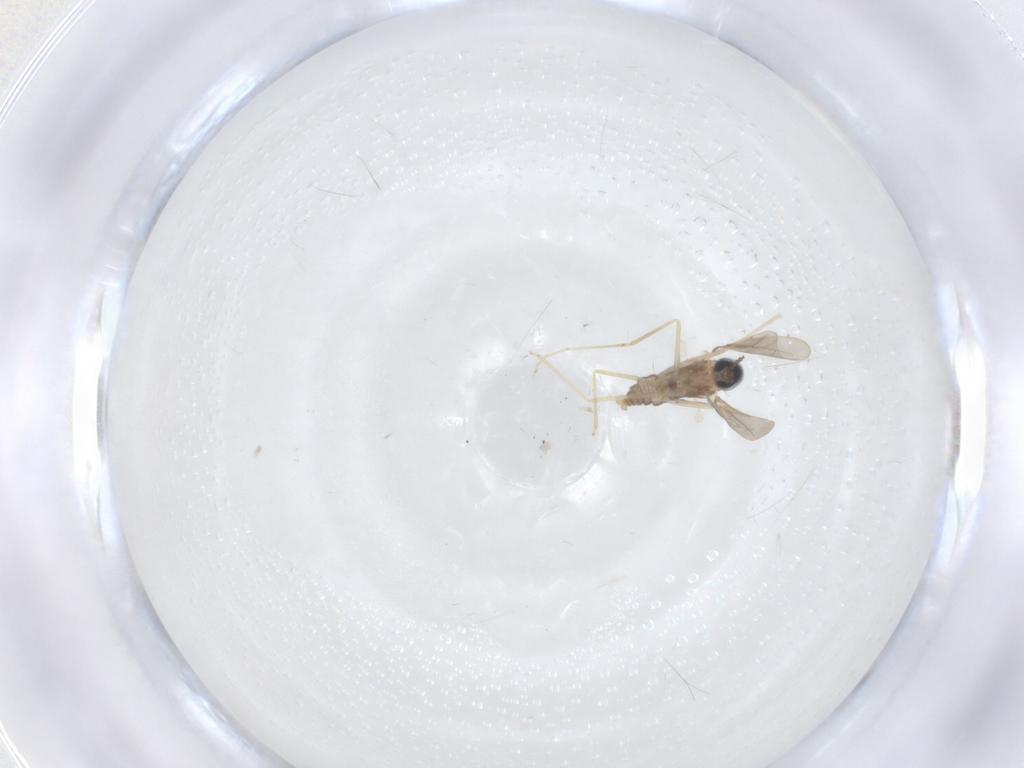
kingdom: Animalia
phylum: Arthropoda
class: Insecta
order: Diptera
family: Cecidomyiidae
